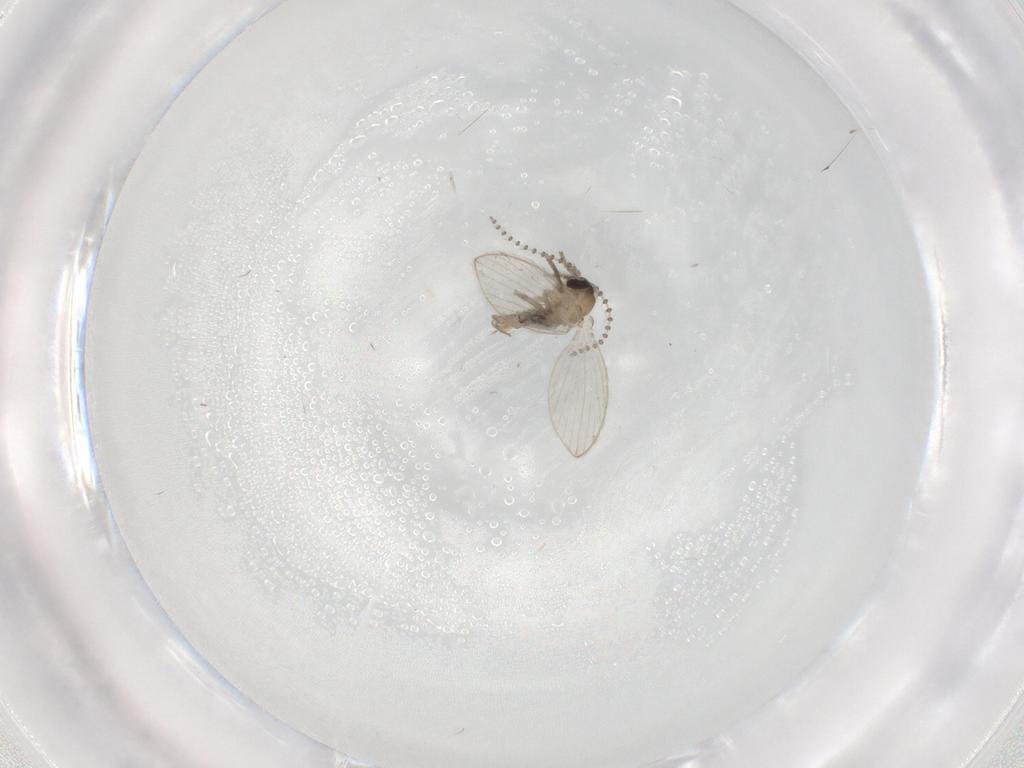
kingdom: Animalia
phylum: Arthropoda
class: Insecta
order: Diptera
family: Psychodidae
